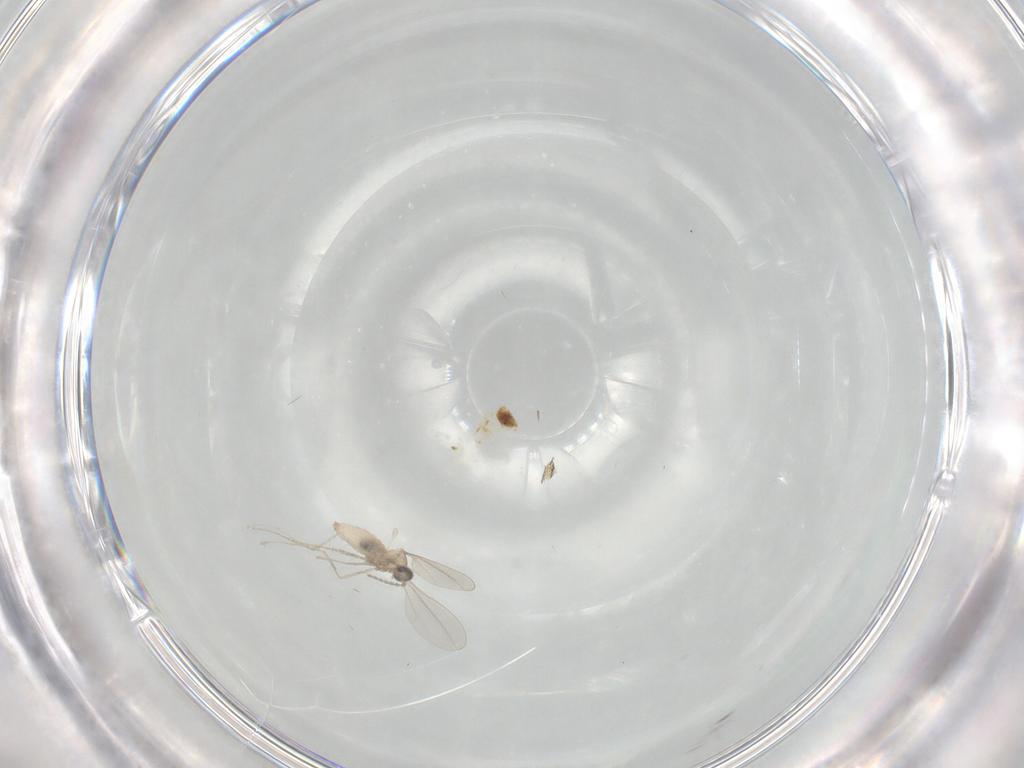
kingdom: Animalia
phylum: Arthropoda
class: Insecta
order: Diptera
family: Cecidomyiidae
